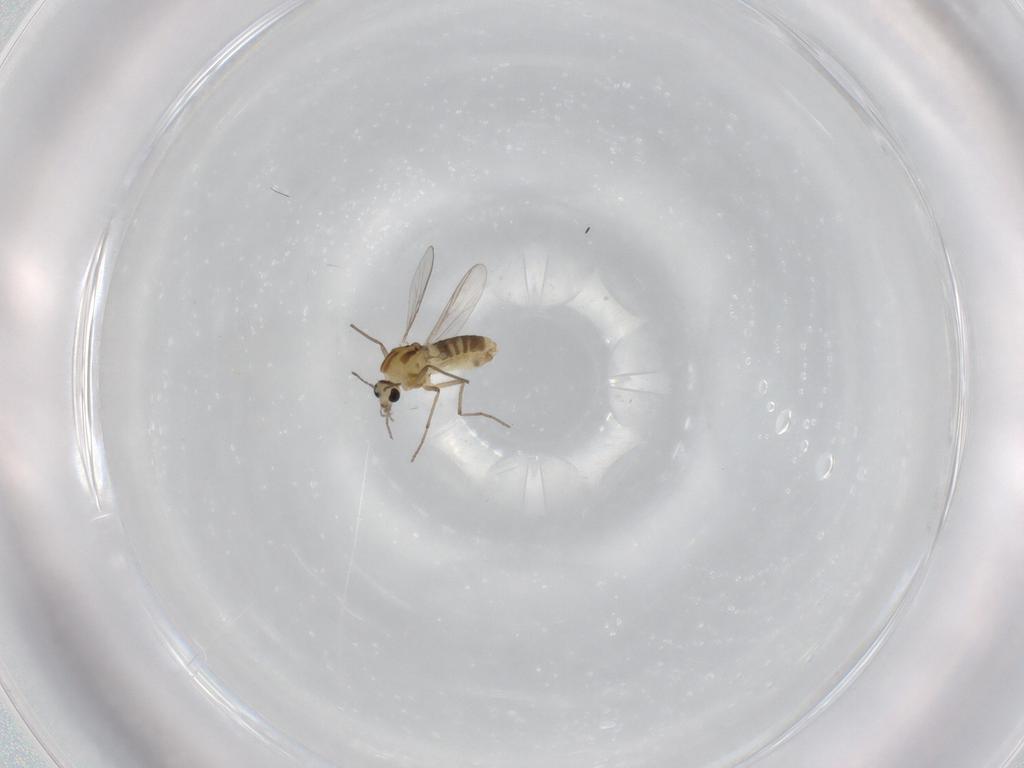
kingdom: Animalia
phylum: Arthropoda
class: Insecta
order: Diptera
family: Chironomidae
